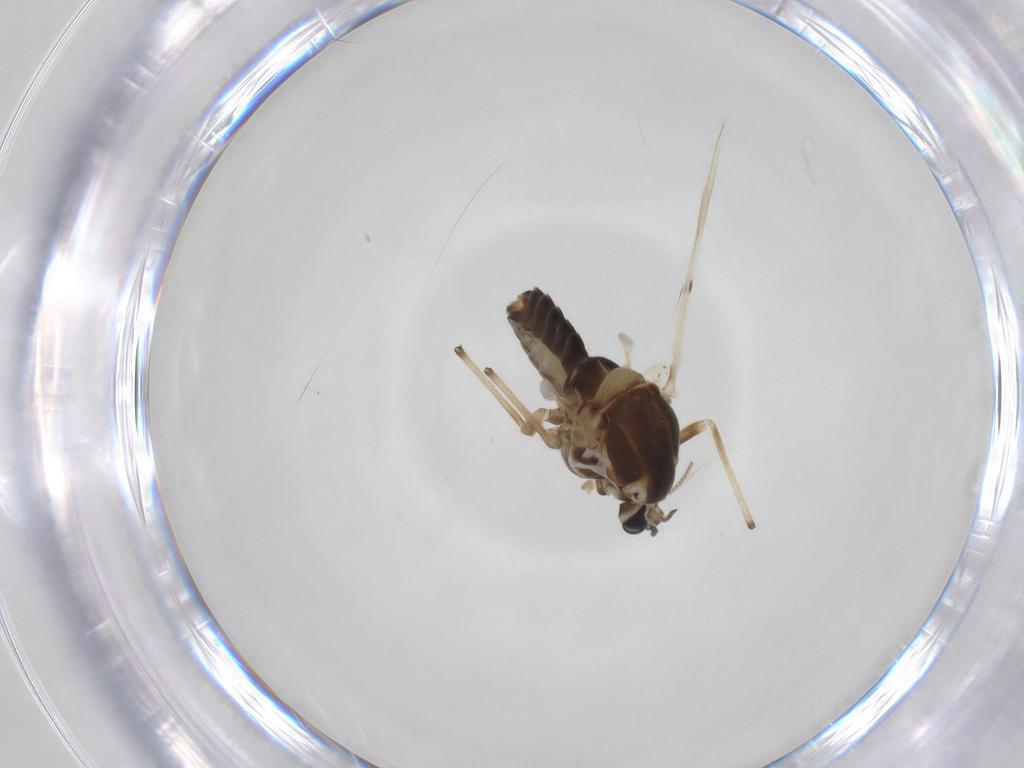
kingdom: Animalia
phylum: Arthropoda
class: Insecta
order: Diptera
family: Chironomidae
